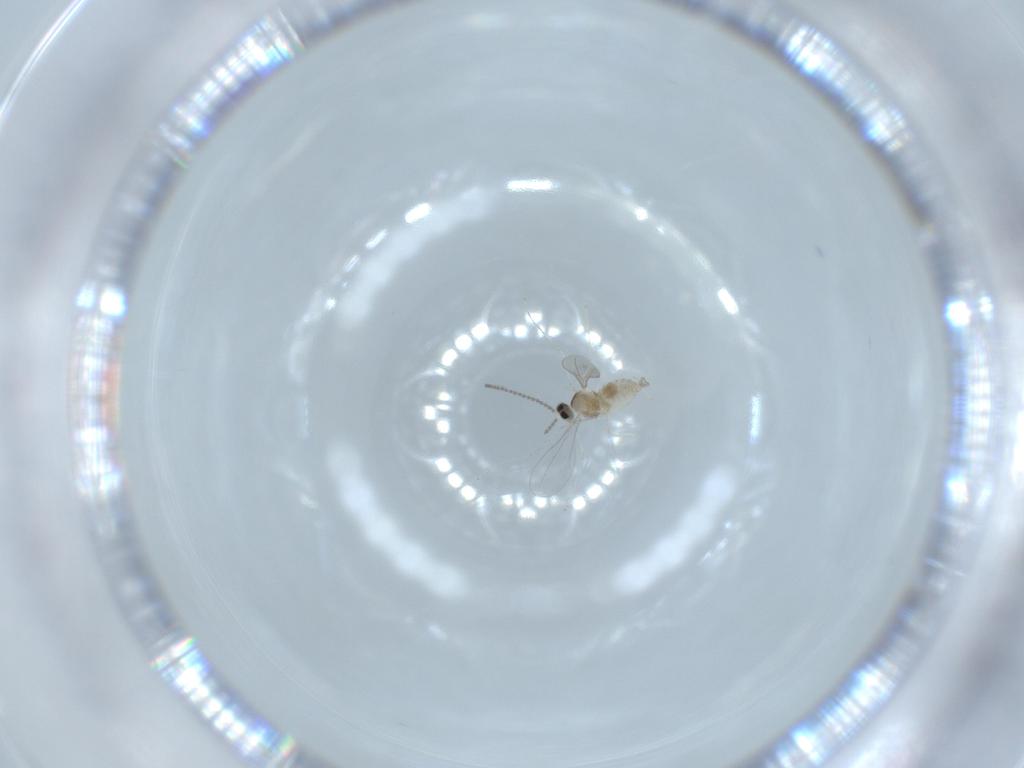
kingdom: Animalia
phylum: Arthropoda
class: Insecta
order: Diptera
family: Cecidomyiidae
